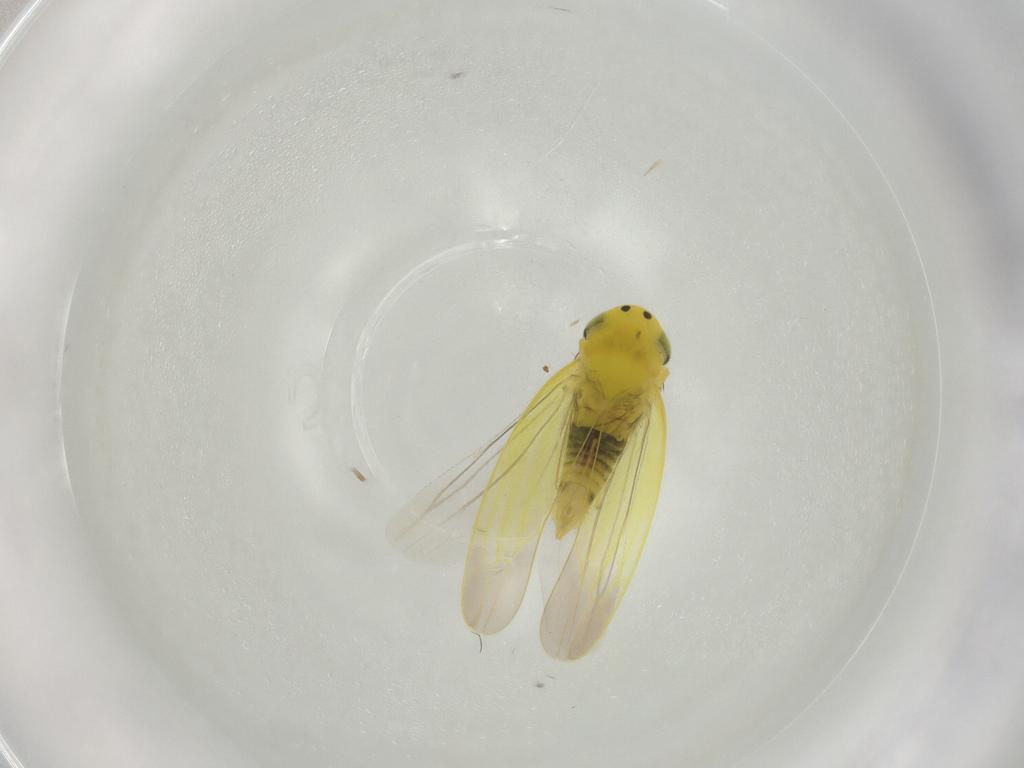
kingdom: Animalia
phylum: Arthropoda
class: Insecta
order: Hemiptera
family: Cicadellidae
